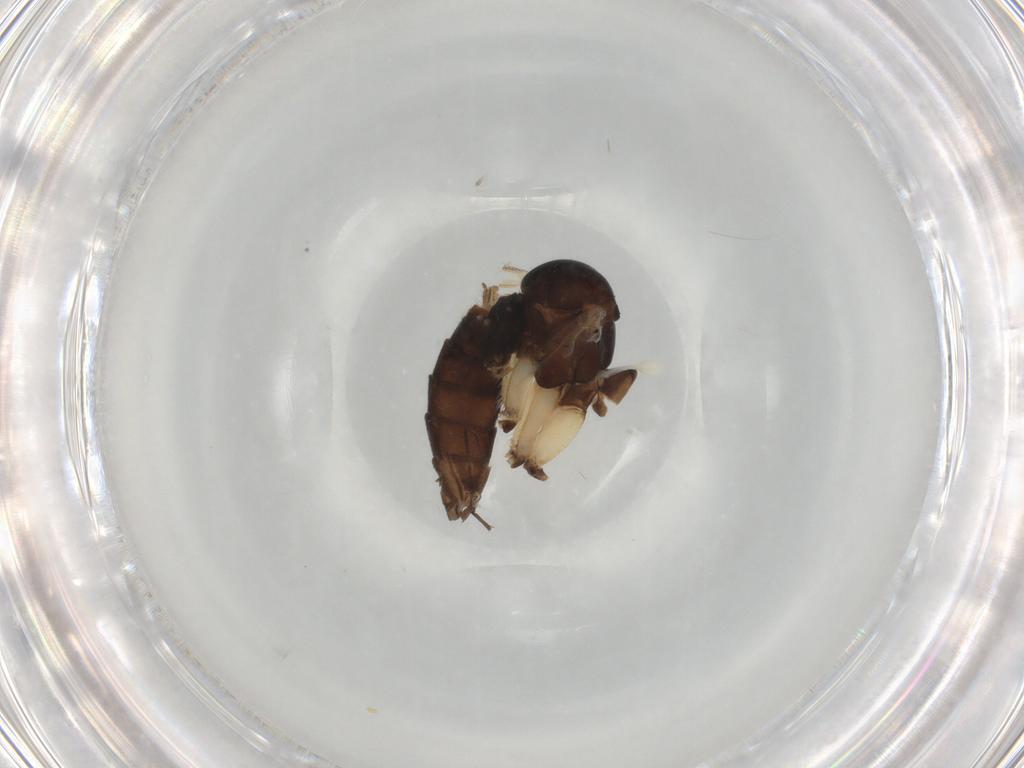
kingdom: Animalia
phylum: Arthropoda
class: Insecta
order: Diptera
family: Mycetophilidae
